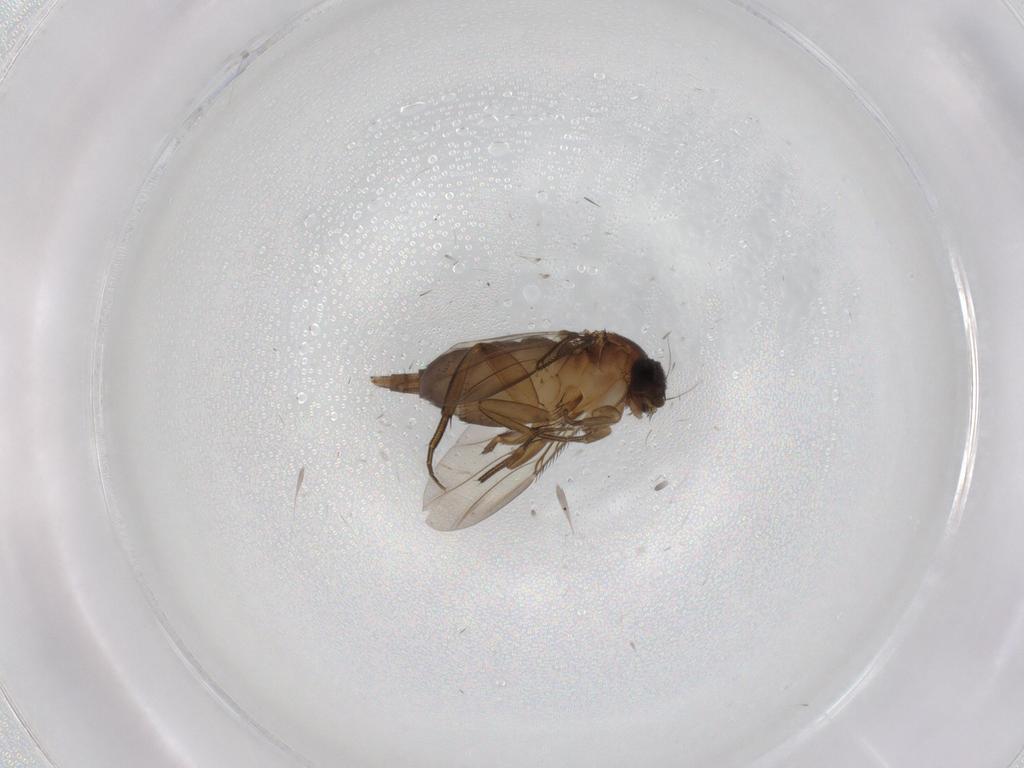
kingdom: Animalia
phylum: Arthropoda
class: Insecta
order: Diptera
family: Phoridae
